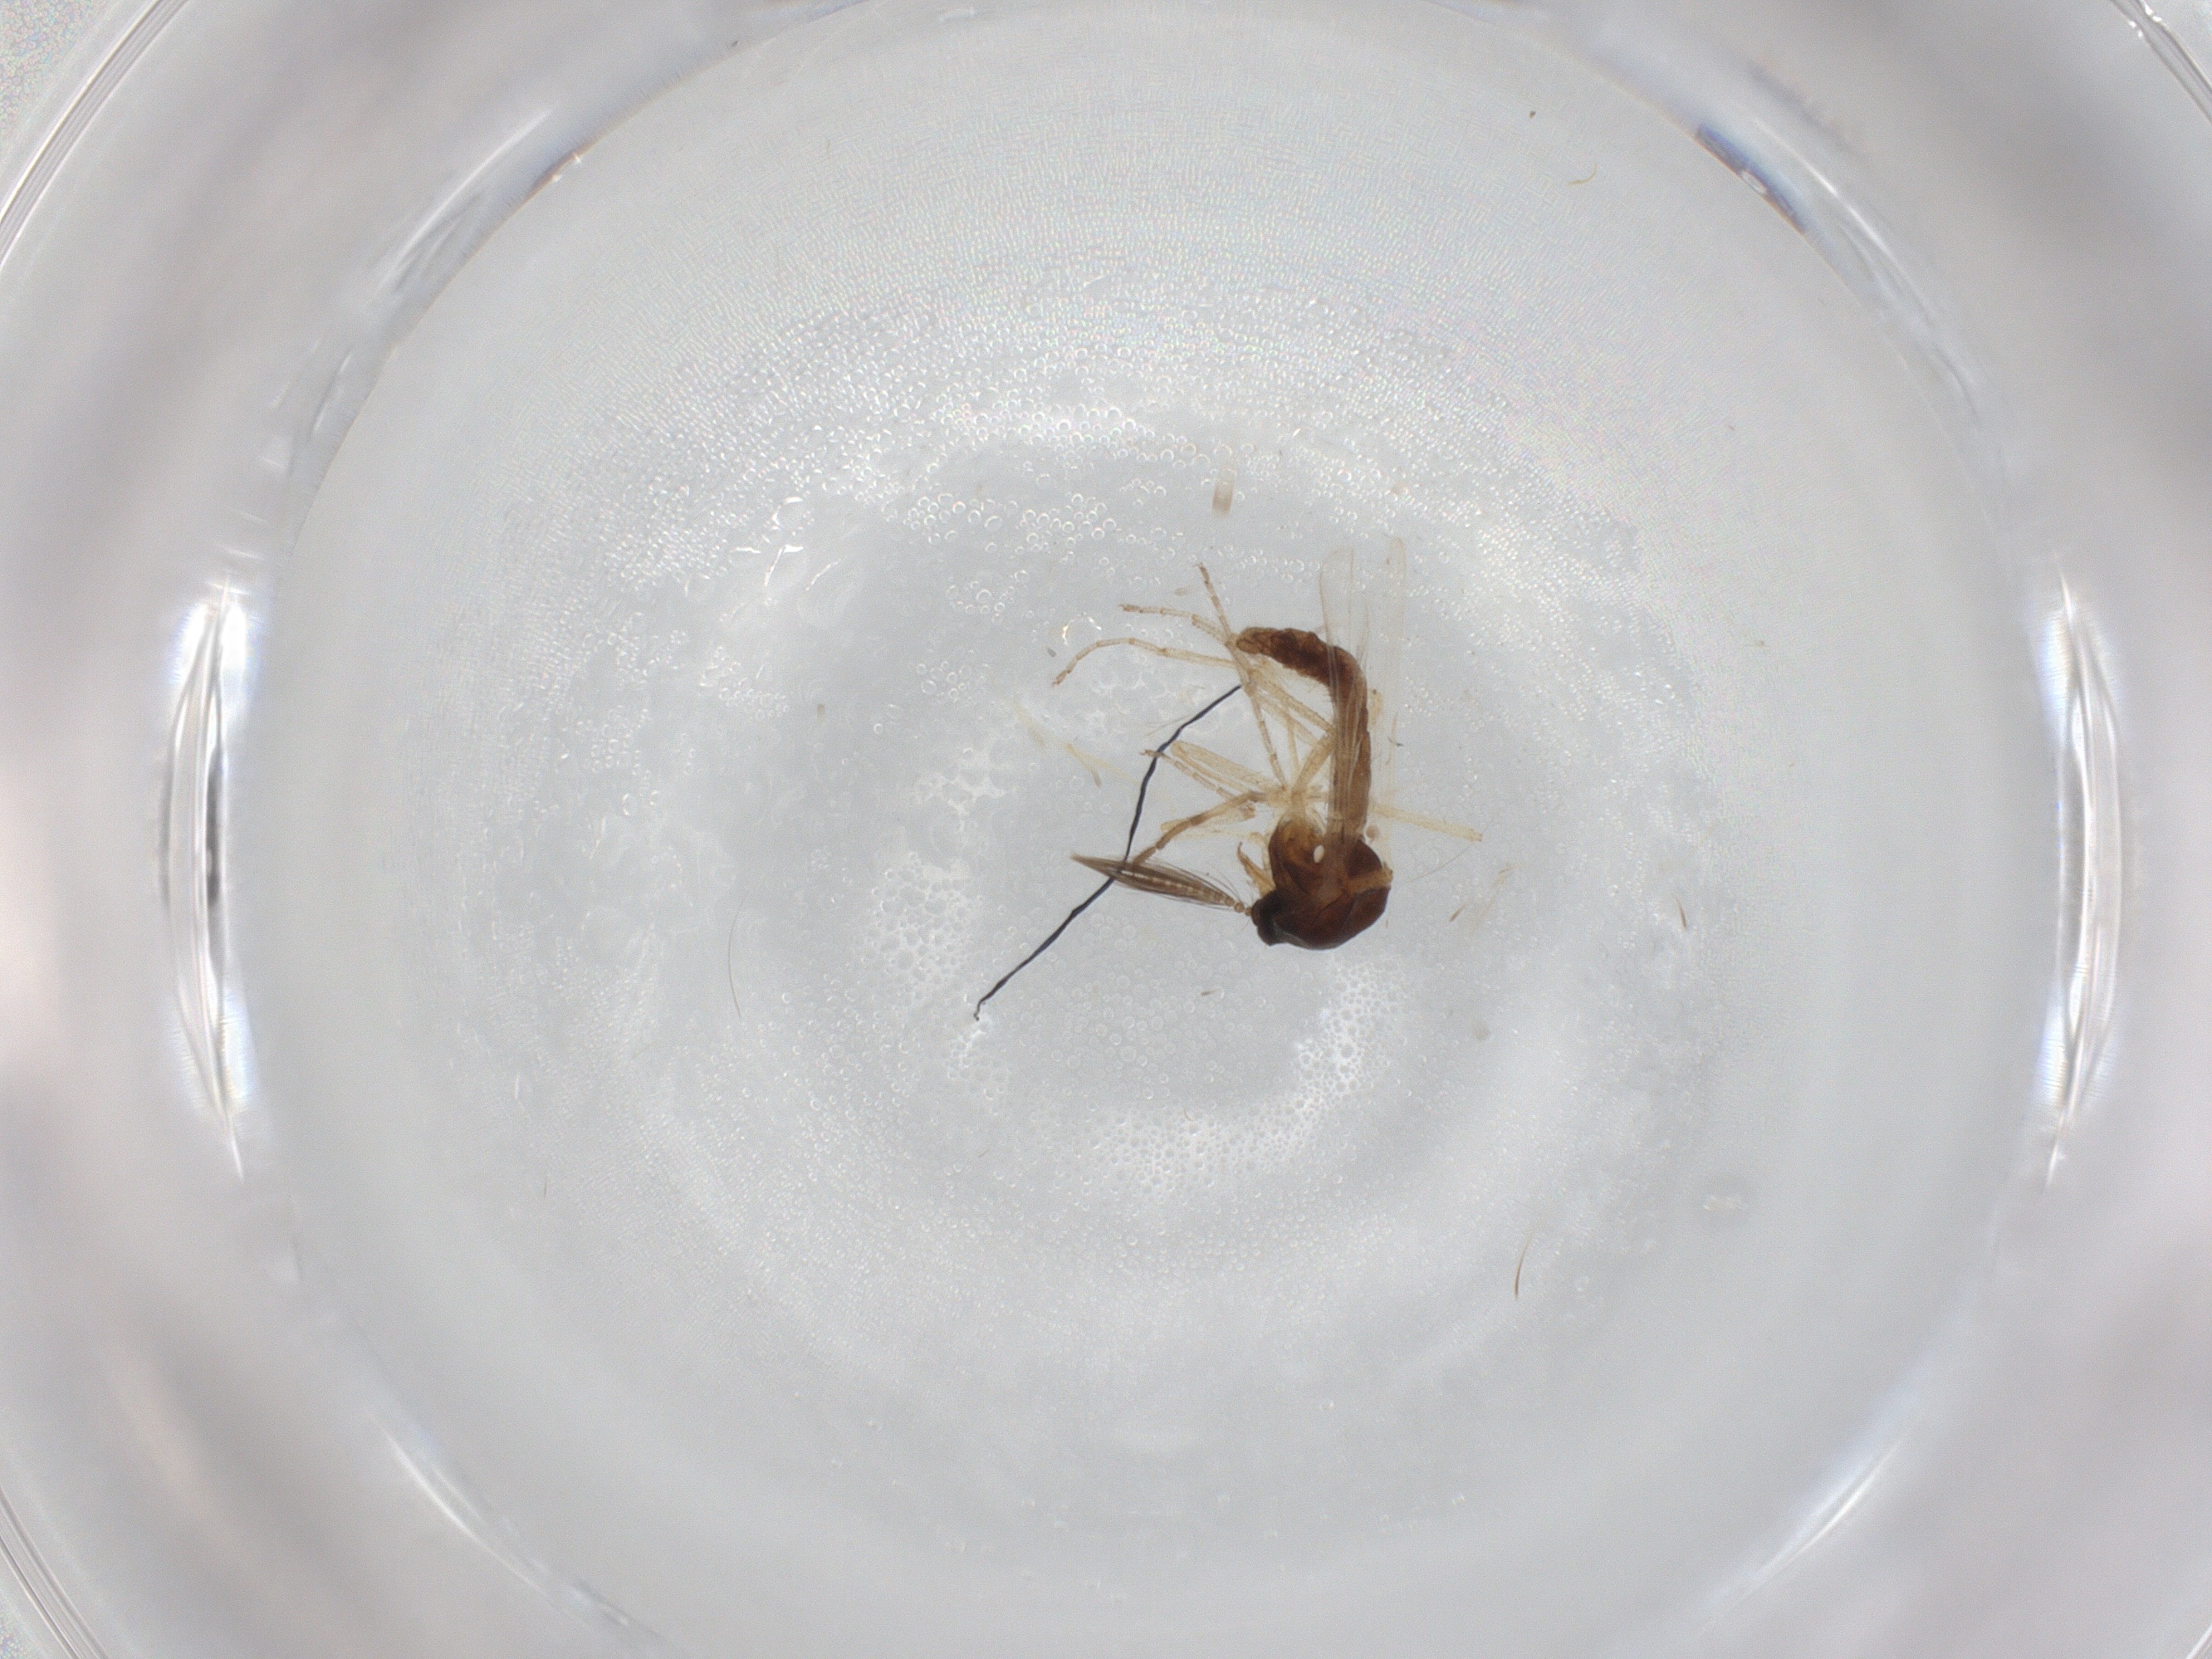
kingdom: Animalia
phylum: Arthropoda
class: Insecta
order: Diptera
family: Ceratopogonidae
